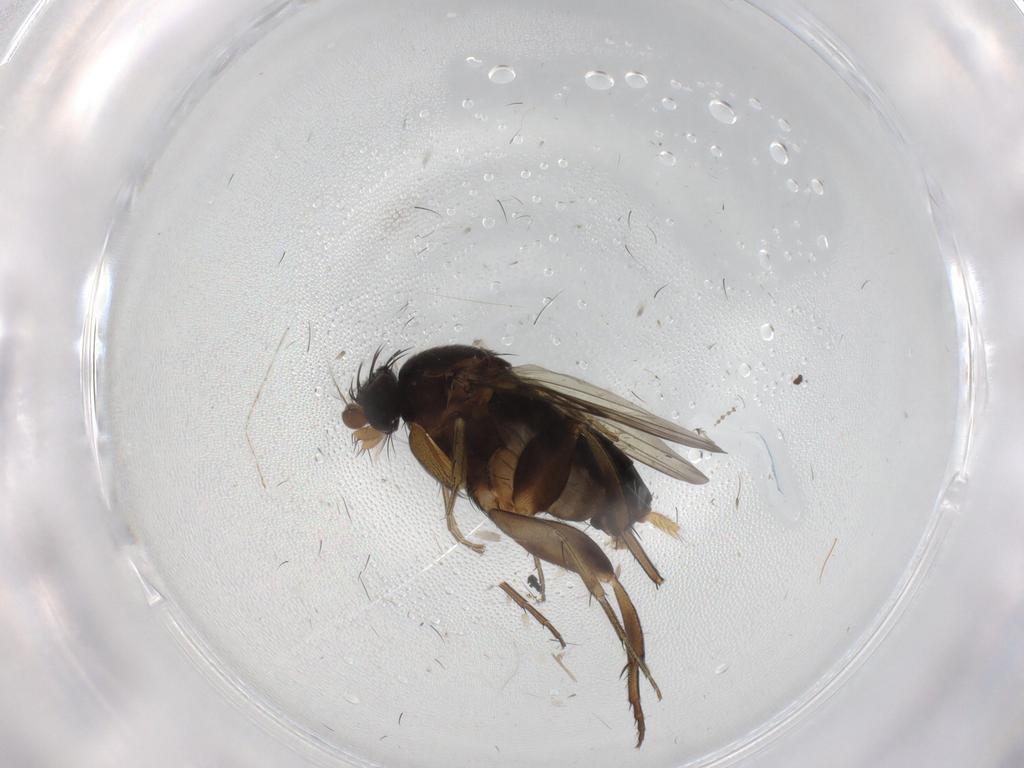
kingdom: Animalia
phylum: Arthropoda
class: Insecta
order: Diptera
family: Phoridae
